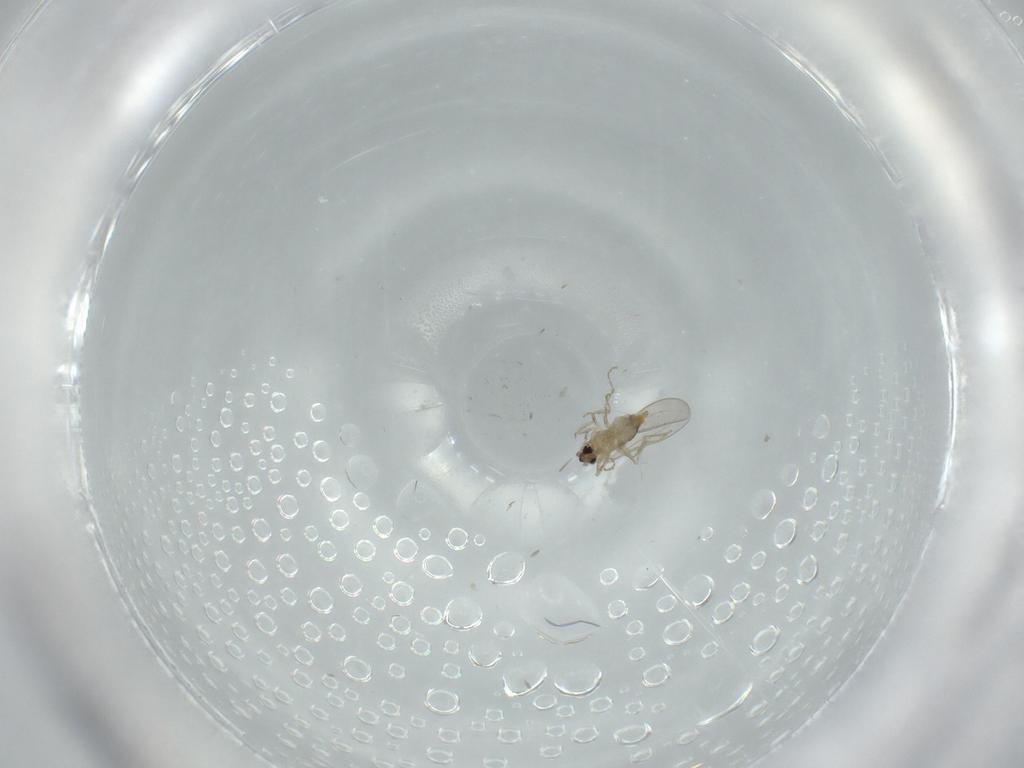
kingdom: Animalia
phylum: Arthropoda
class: Insecta
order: Diptera
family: Cecidomyiidae
